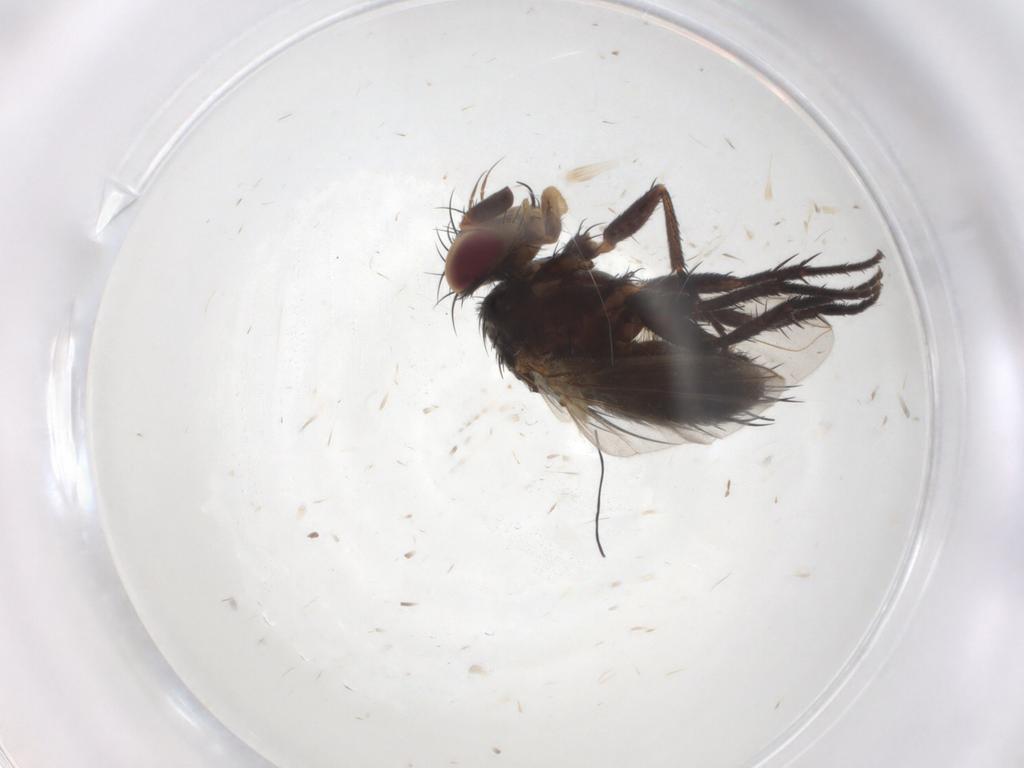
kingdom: Animalia
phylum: Arthropoda
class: Insecta
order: Diptera
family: Tachinidae
